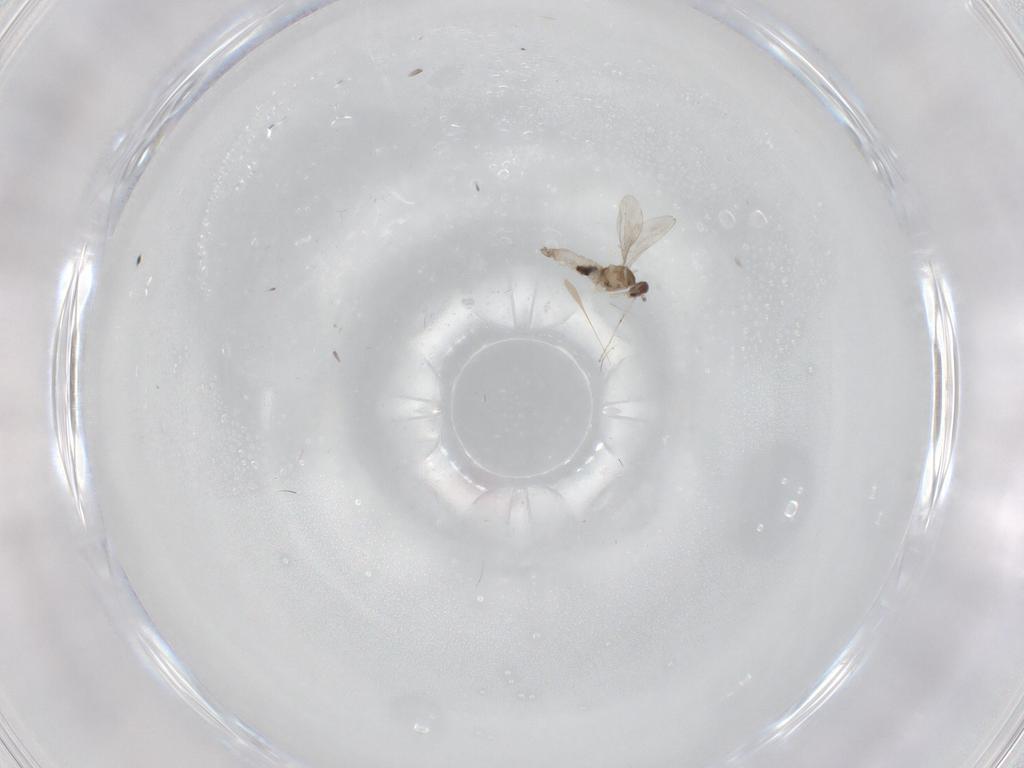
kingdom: Animalia
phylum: Arthropoda
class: Insecta
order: Diptera
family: Cecidomyiidae
